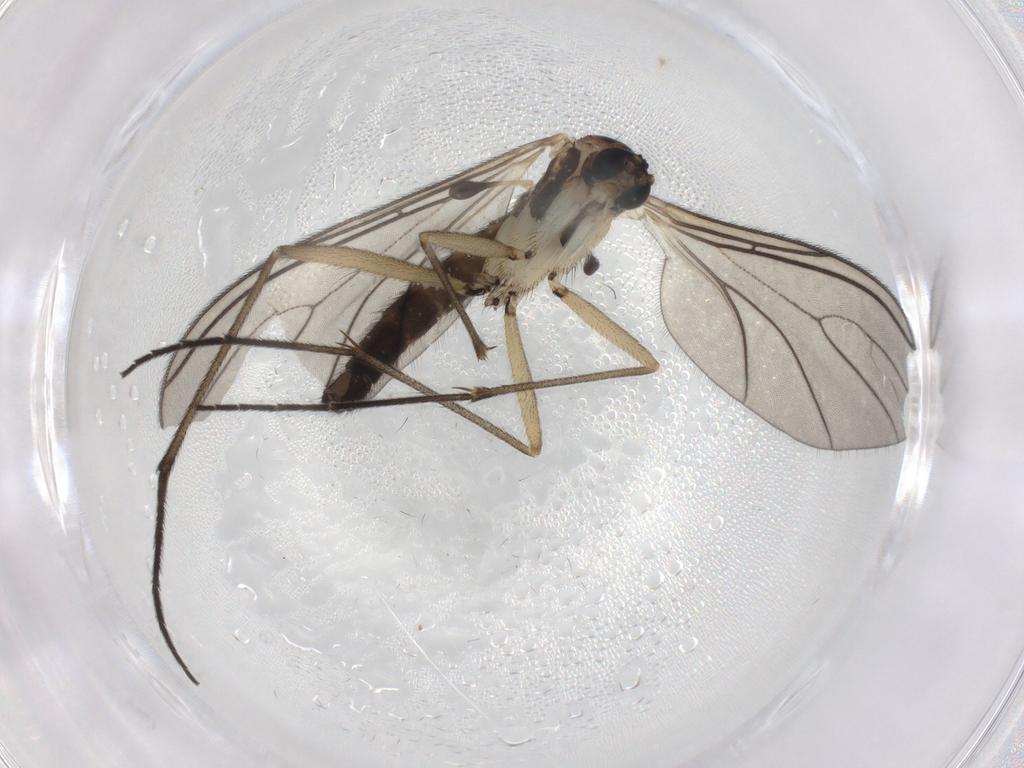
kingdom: Animalia
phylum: Arthropoda
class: Insecta
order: Diptera
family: Sciaridae
